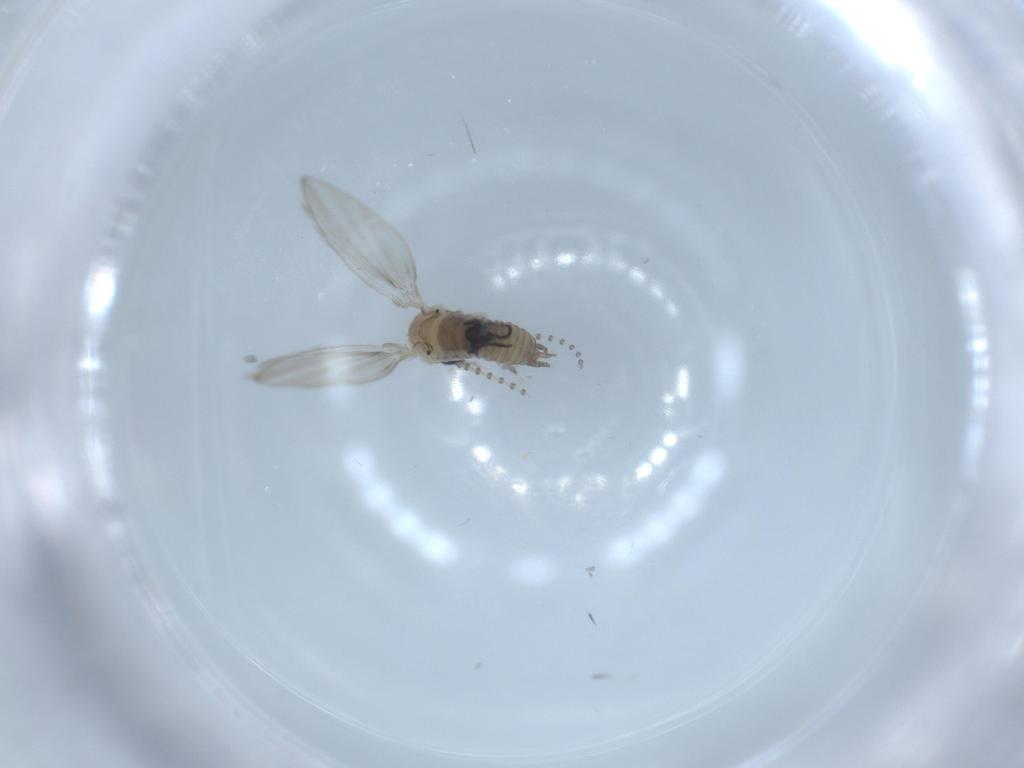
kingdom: Animalia
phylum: Arthropoda
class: Insecta
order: Diptera
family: Psychodidae
